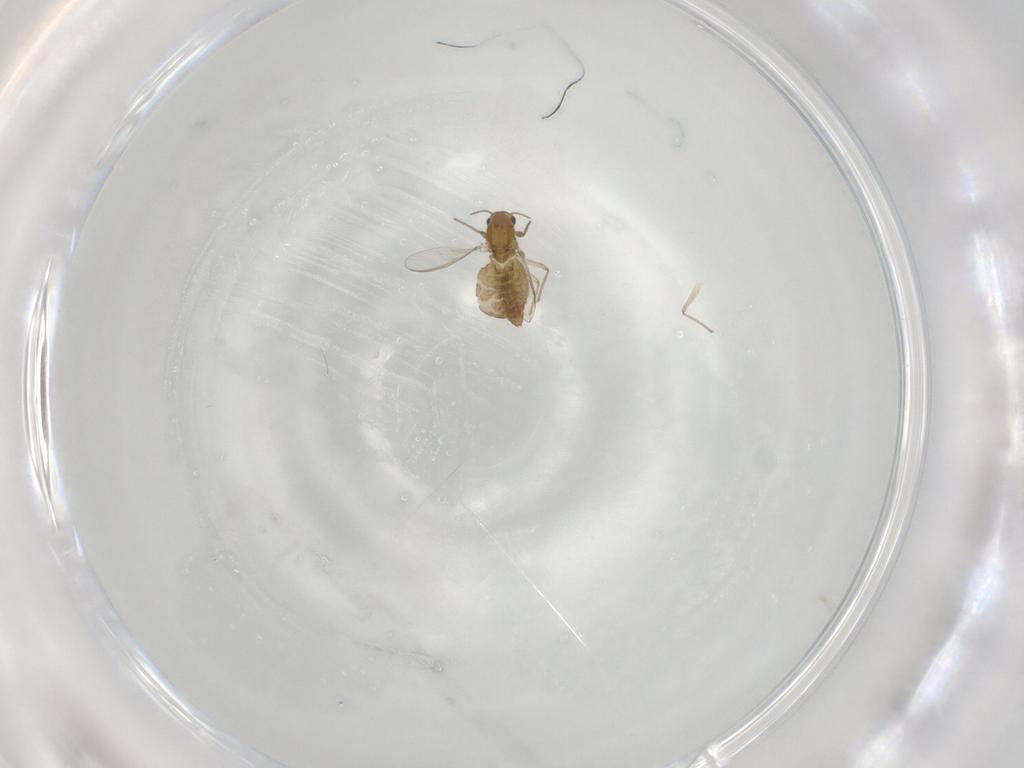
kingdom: Animalia
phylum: Arthropoda
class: Insecta
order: Diptera
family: Chironomidae
